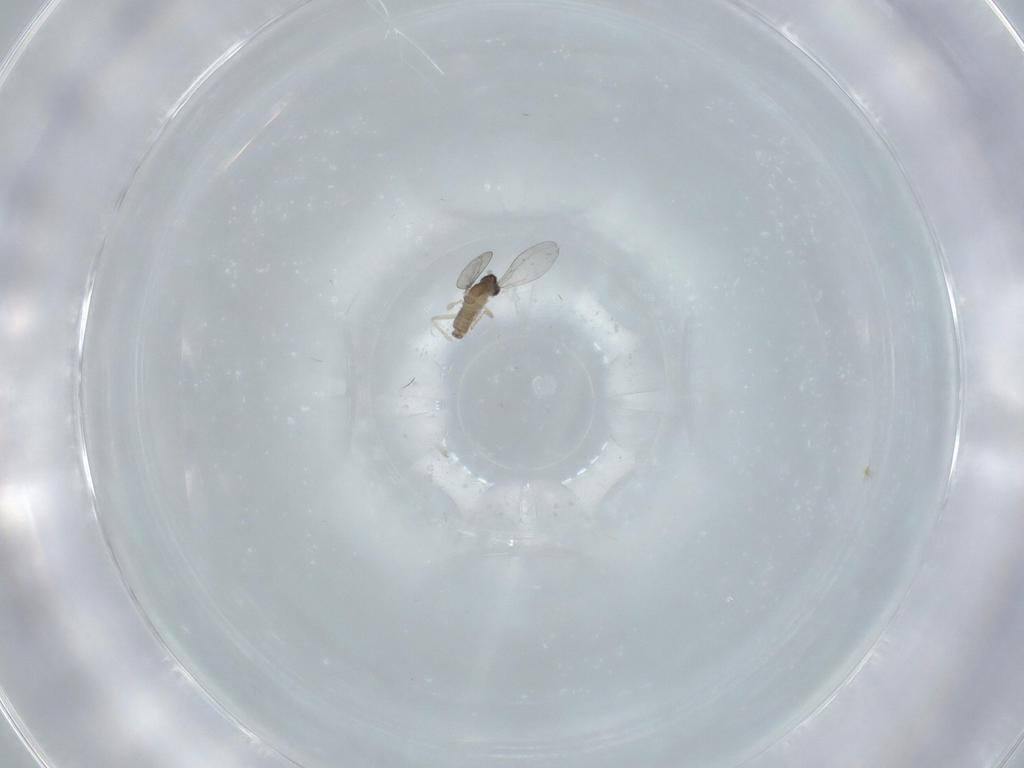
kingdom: Animalia
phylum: Arthropoda
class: Insecta
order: Diptera
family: Cecidomyiidae
